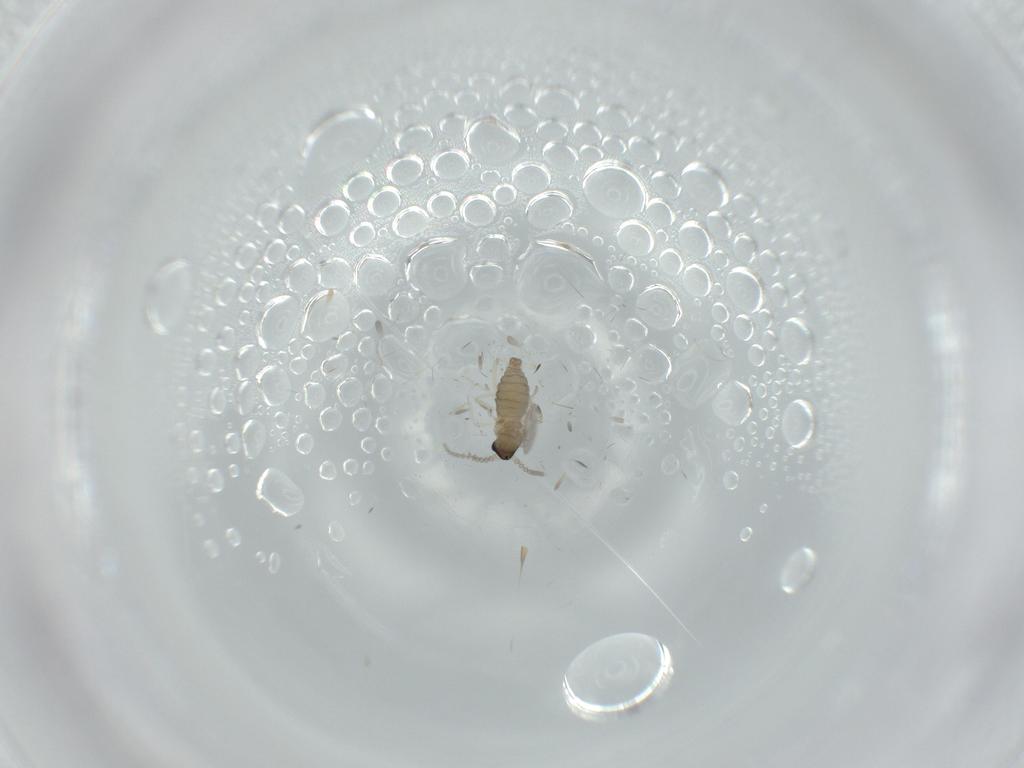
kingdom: Animalia
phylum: Arthropoda
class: Insecta
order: Diptera
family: Cecidomyiidae
